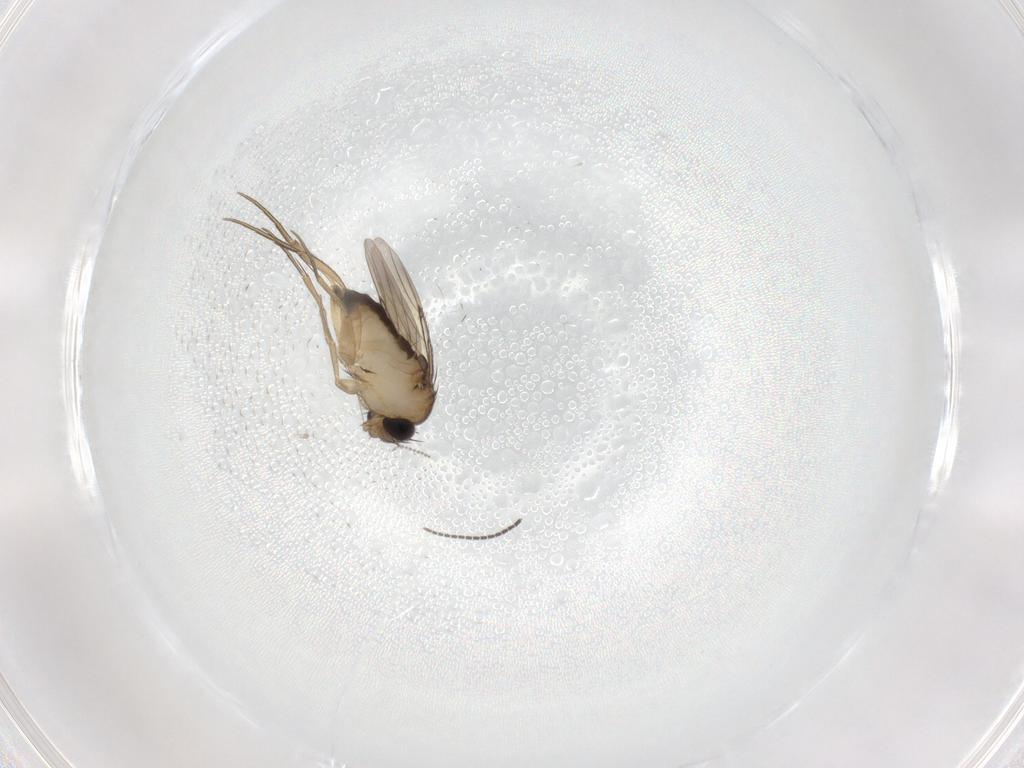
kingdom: Animalia
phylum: Arthropoda
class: Insecta
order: Diptera
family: Phoridae
